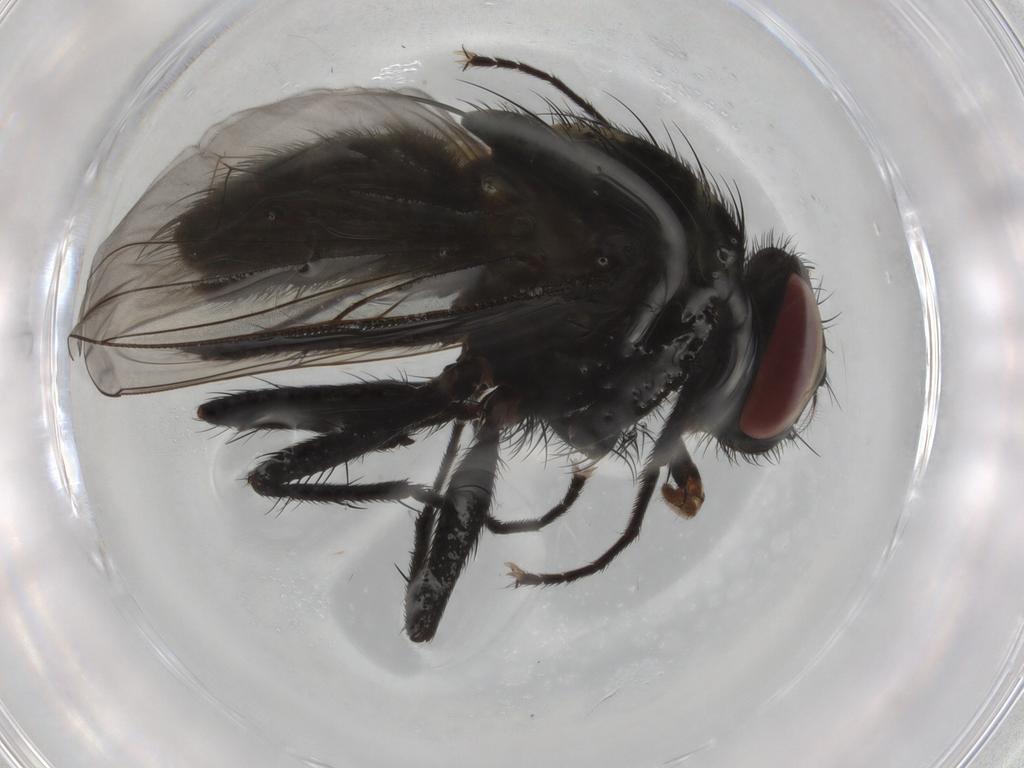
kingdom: Animalia
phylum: Arthropoda
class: Insecta
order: Diptera
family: Muscidae
